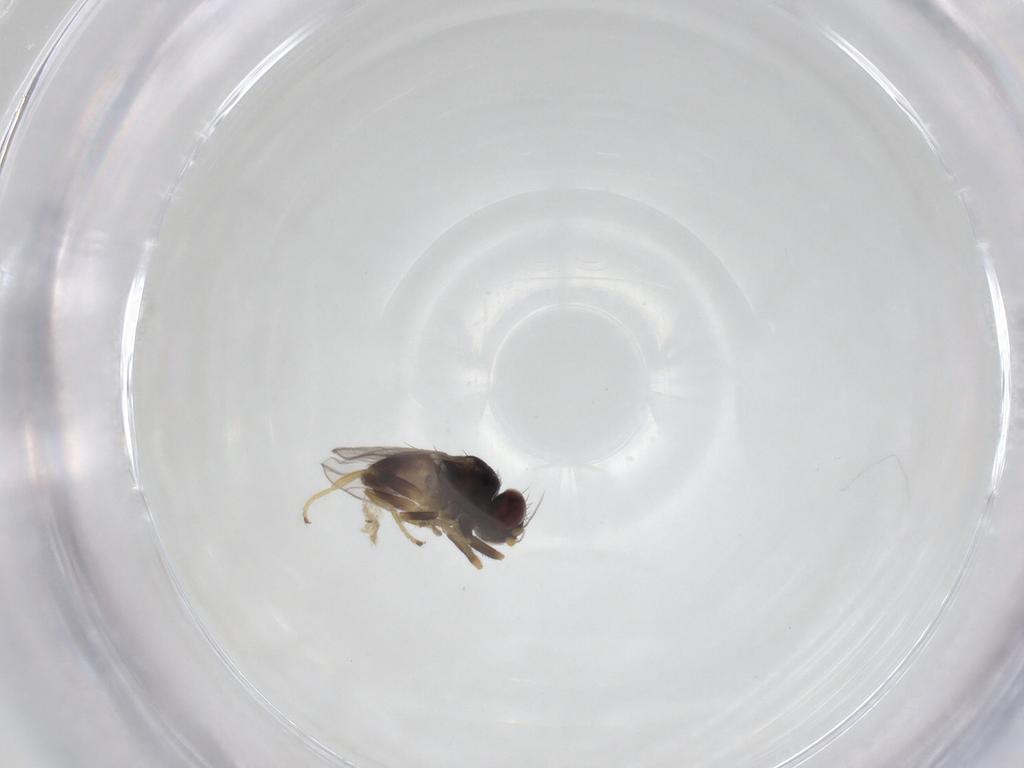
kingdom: Animalia
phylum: Arthropoda
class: Insecta
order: Diptera
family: Chloropidae
